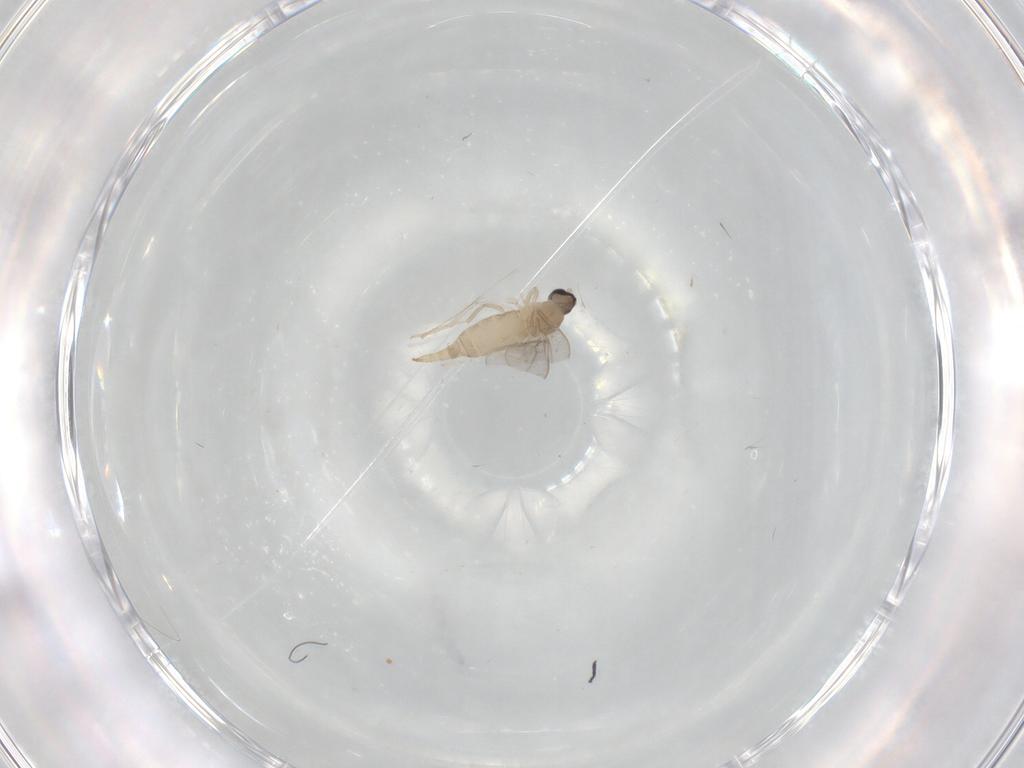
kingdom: Animalia
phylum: Arthropoda
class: Insecta
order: Diptera
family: Cecidomyiidae
